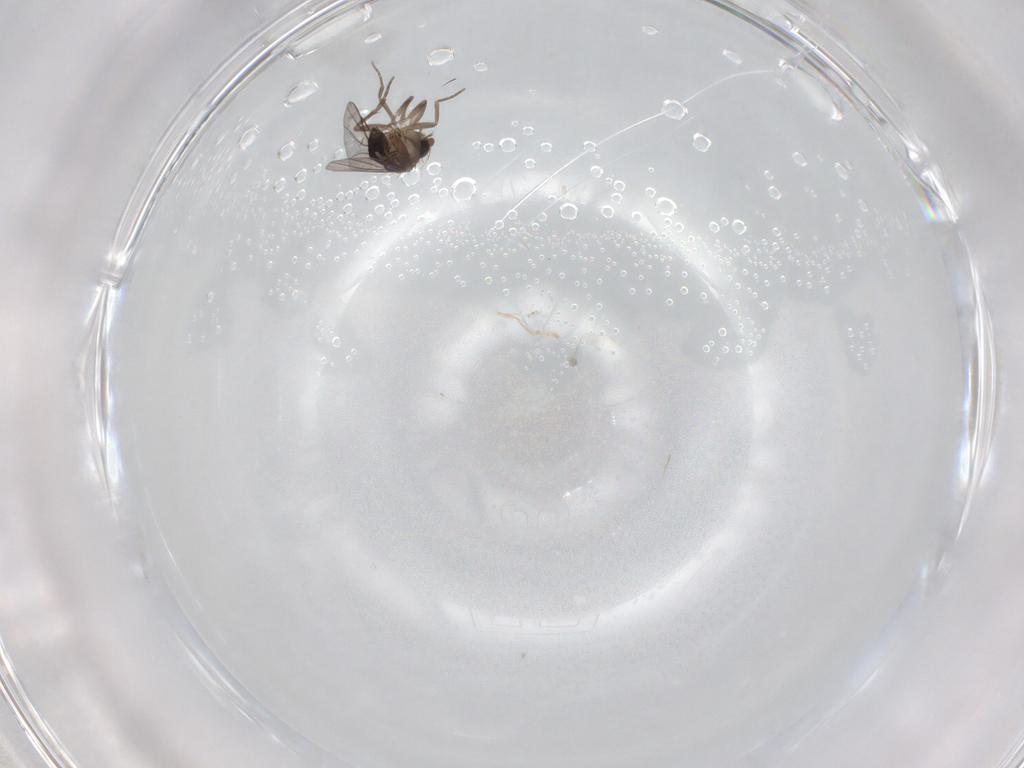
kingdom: Animalia
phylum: Arthropoda
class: Insecta
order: Diptera
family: Phoridae
